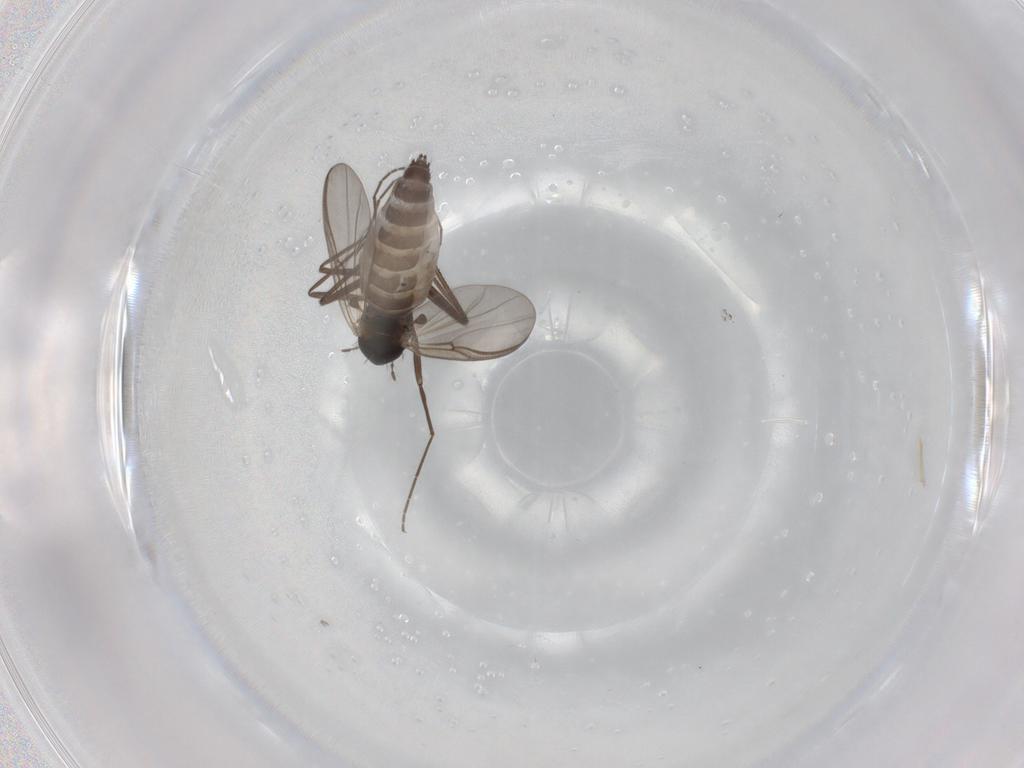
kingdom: Animalia
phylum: Arthropoda
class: Insecta
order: Diptera
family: Chironomidae
